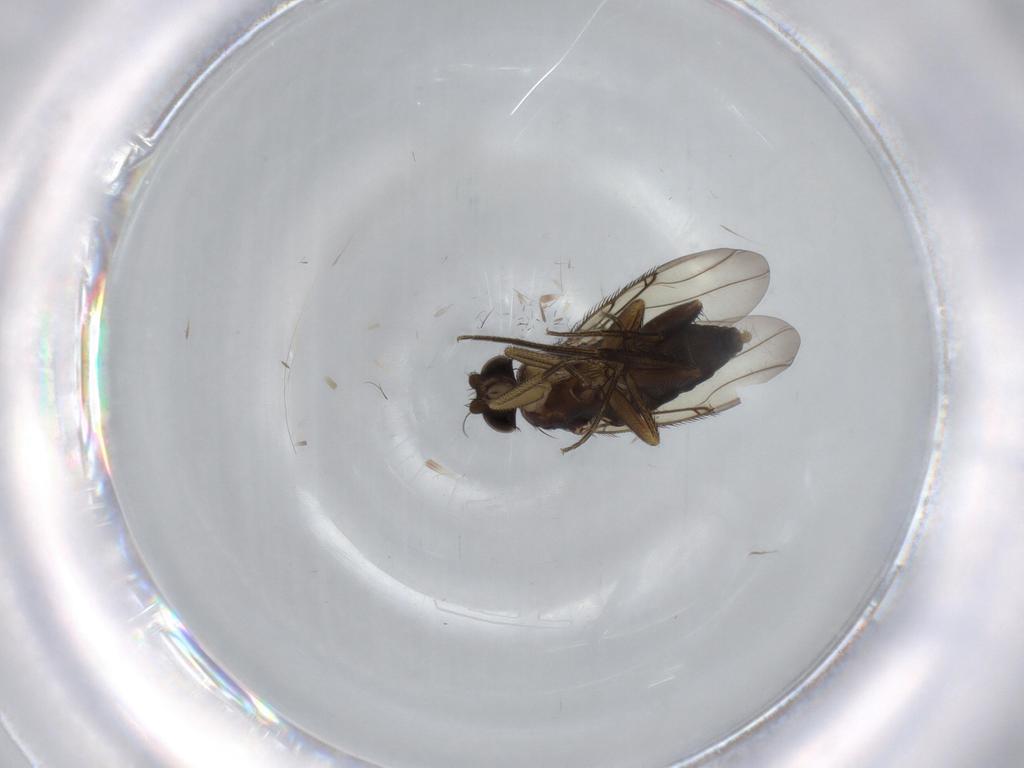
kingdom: Animalia
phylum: Arthropoda
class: Insecta
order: Diptera
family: Phoridae
